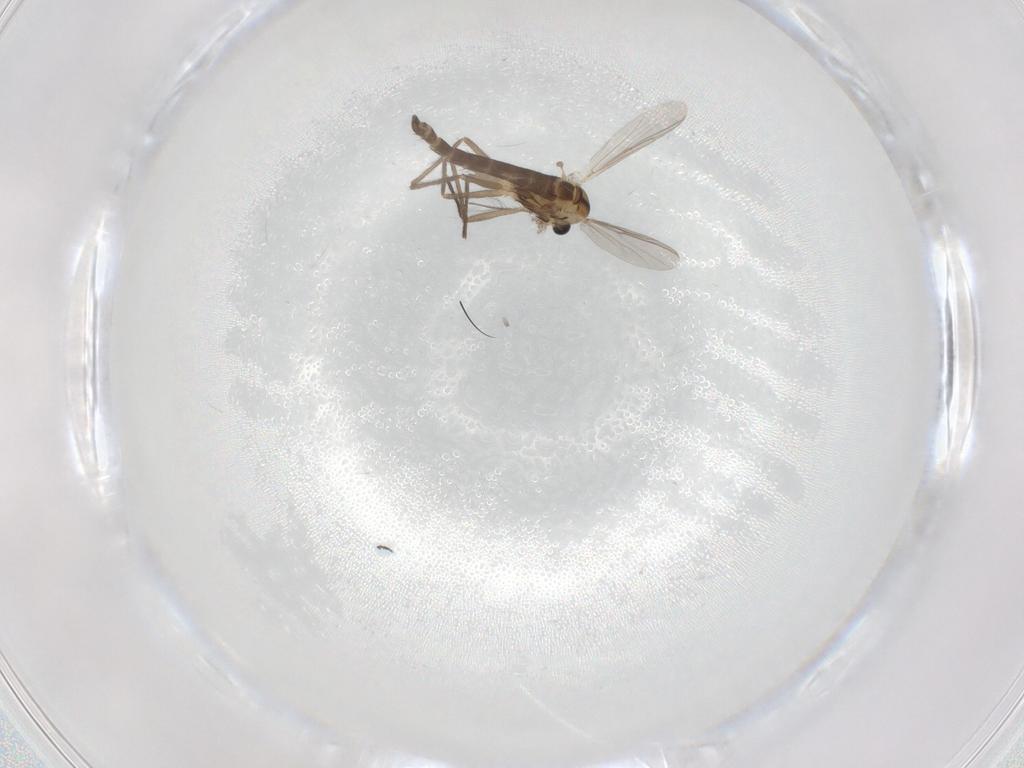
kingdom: Animalia
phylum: Arthropoda
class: Insecta
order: Diptera
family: Chironomidae
